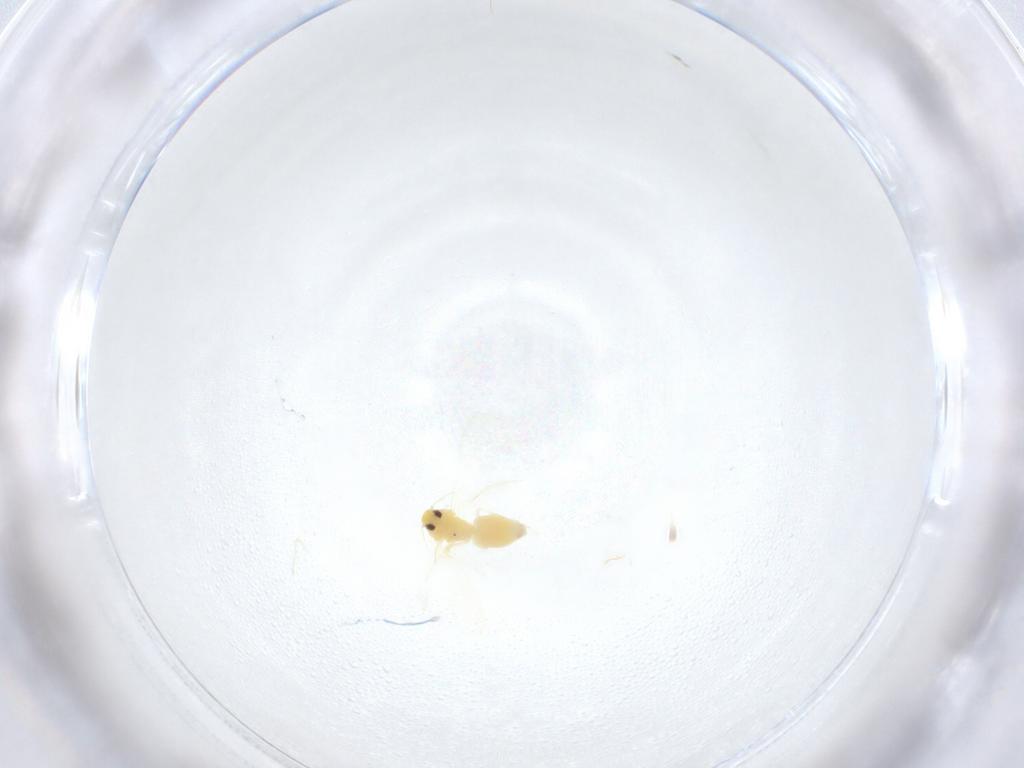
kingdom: Animalia
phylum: Arthropoda
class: Insecta
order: Hemiptera
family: Aleyrodidae
